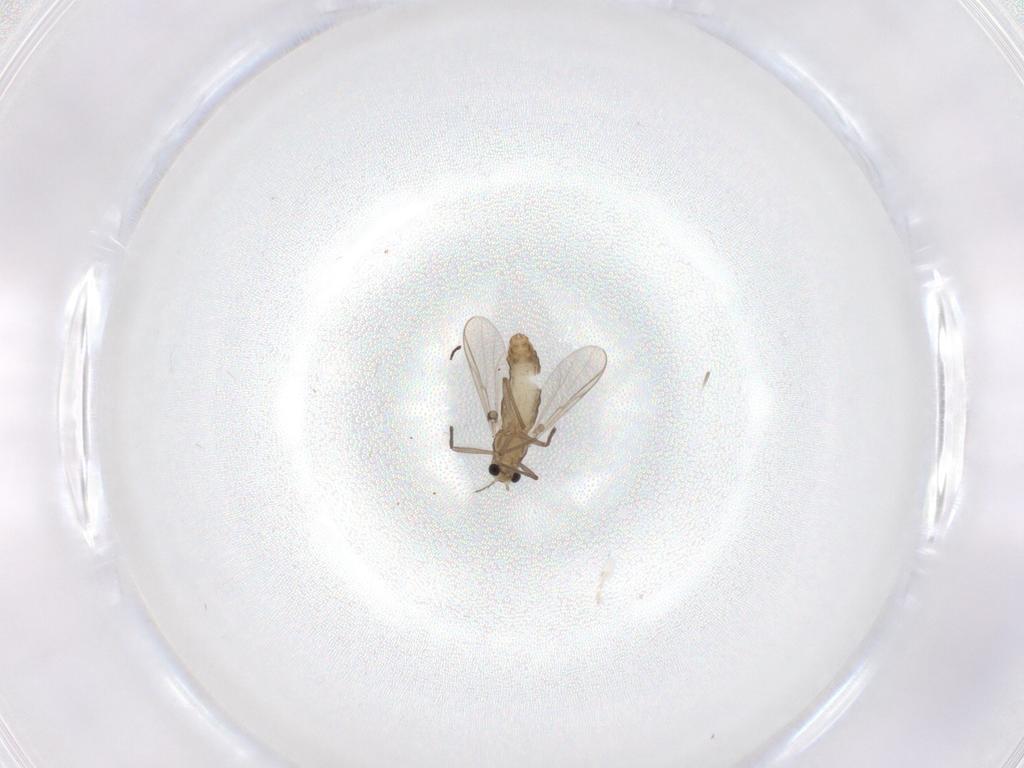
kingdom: Animalia
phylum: Arthropoda
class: Insecta
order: Diptera
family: Chironomidae
